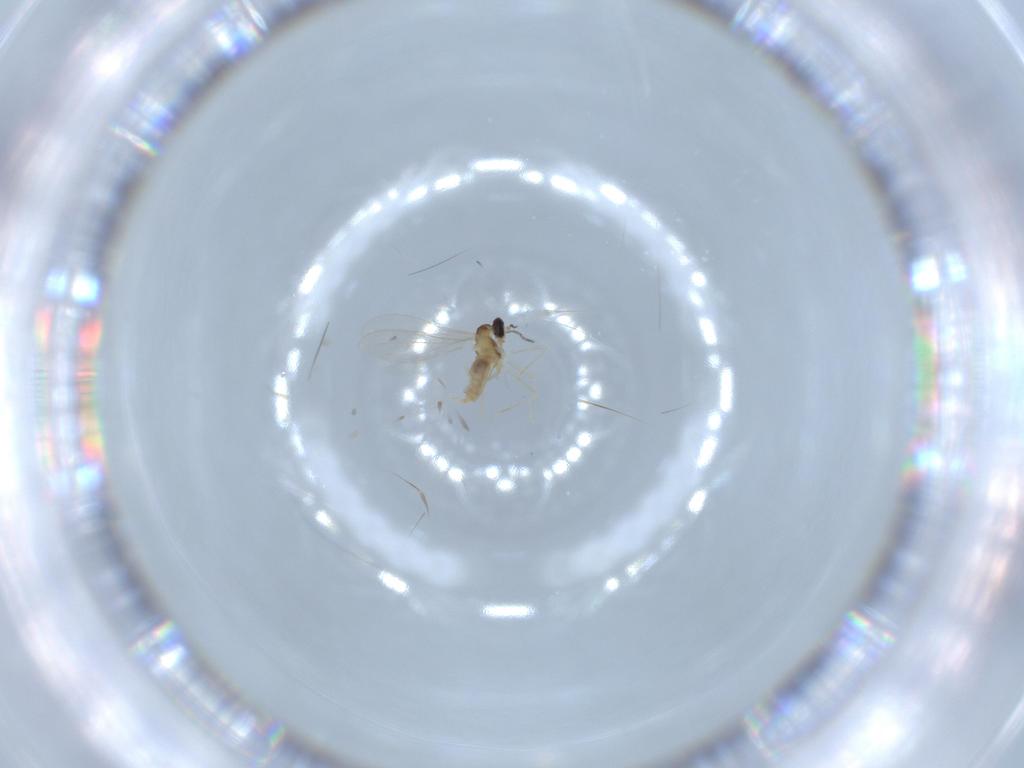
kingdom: Animalia
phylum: Arthropoda
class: Insecta
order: Diptera
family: Cecidomyiidae
